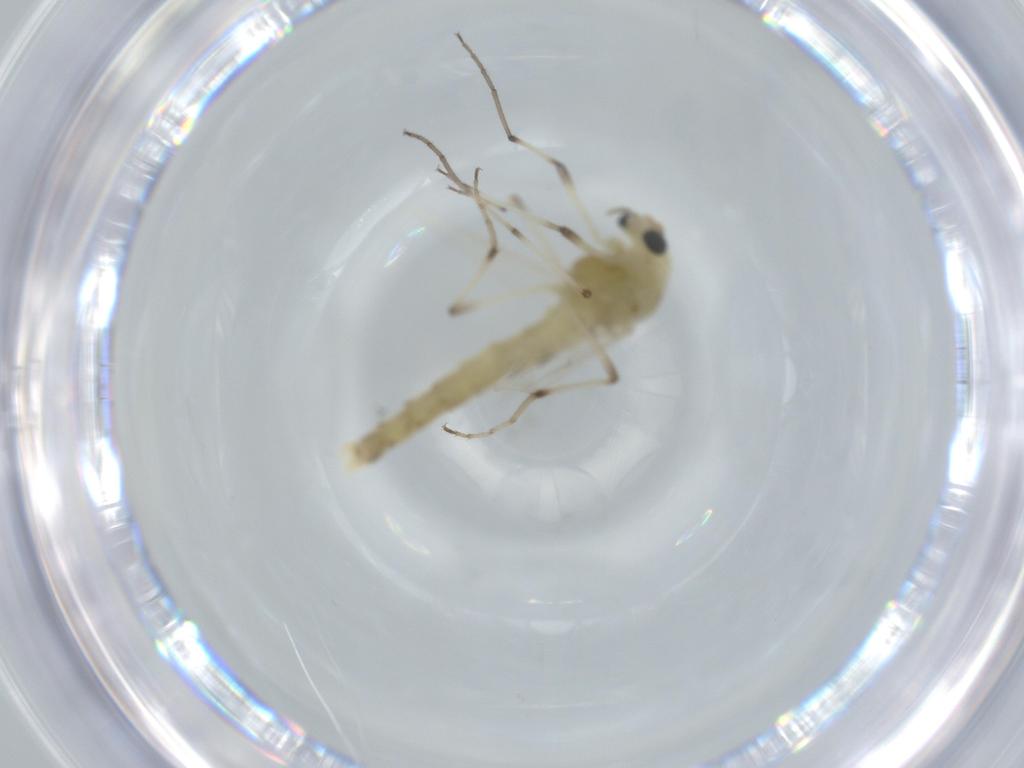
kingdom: Animalia
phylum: Arthropoda
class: Insecta
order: Diptera
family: Chironomidae
